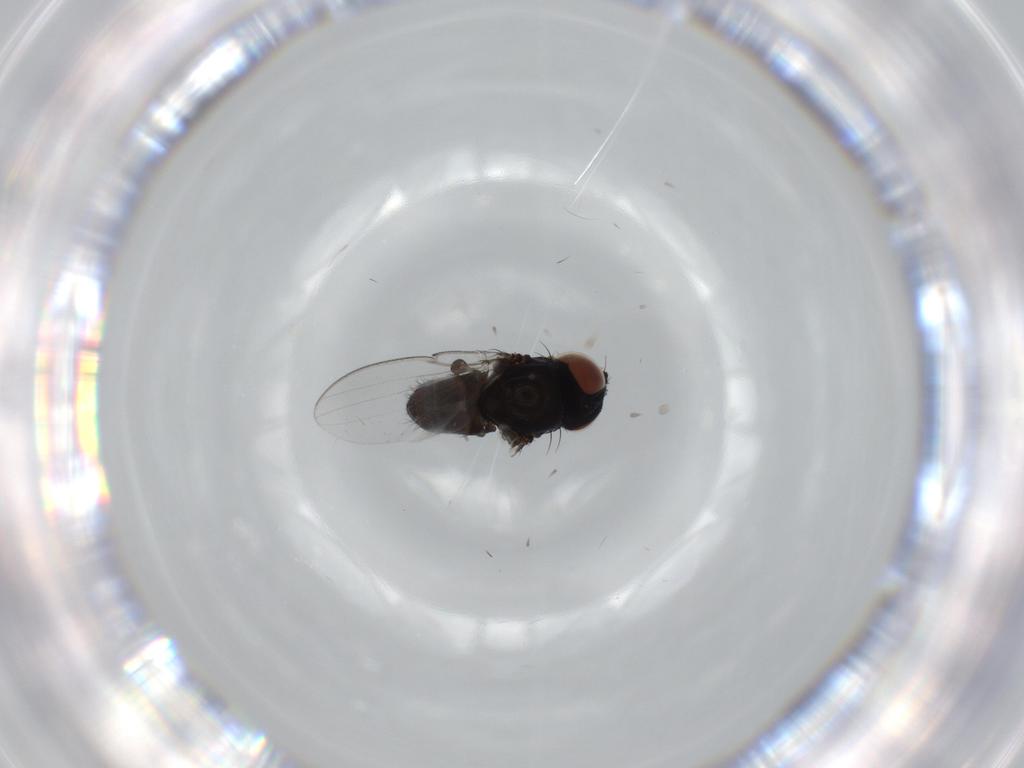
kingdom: Animalia
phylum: Arthropoda
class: Insecta
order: Diptera
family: Milichiidae
